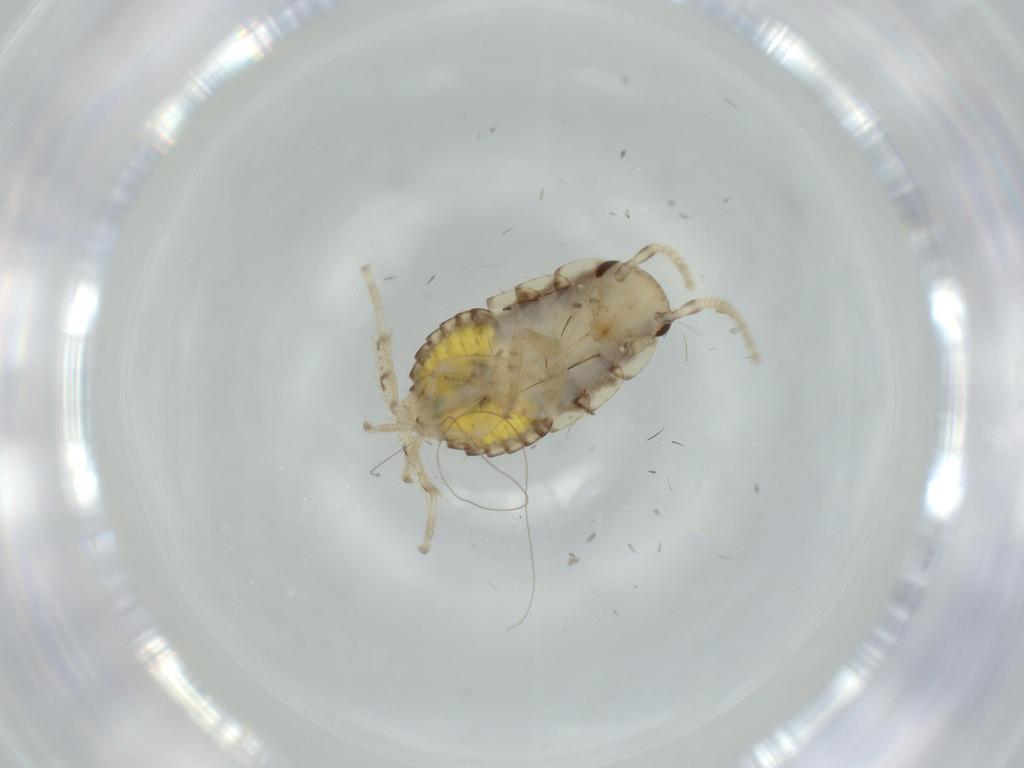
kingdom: Animalia
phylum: Arthropoda
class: Insecta
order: Blattodea
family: Ectobiidae
